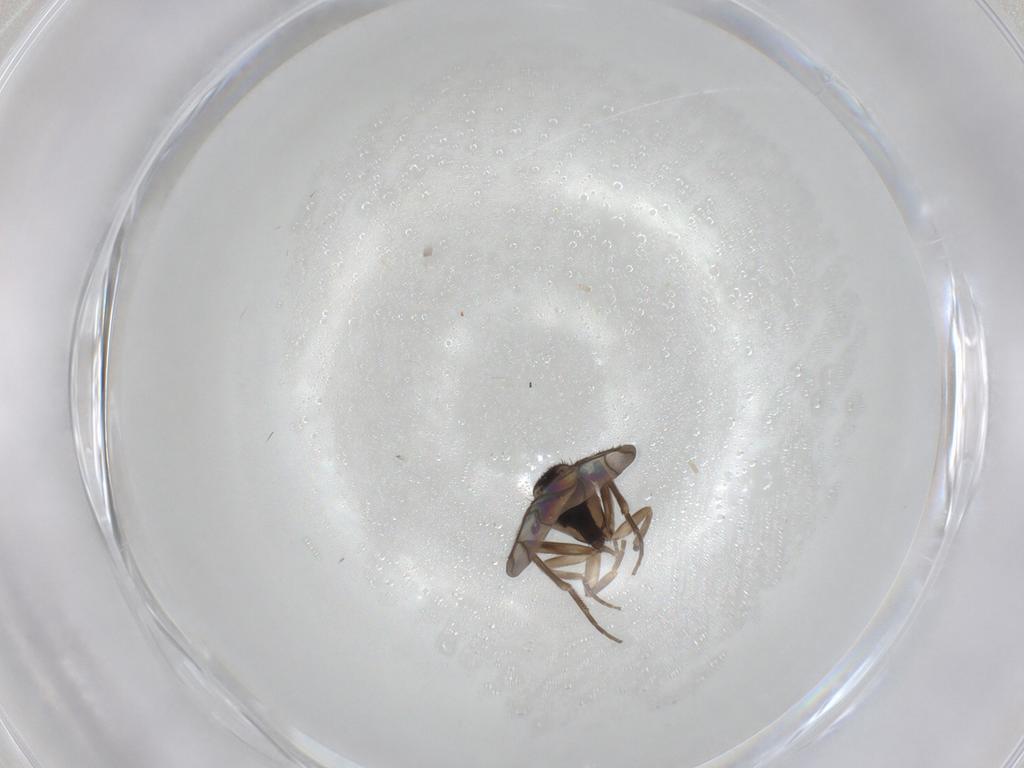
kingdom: Animalia
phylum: Arthropoda
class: Insecta
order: Diptera
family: Phoridae
